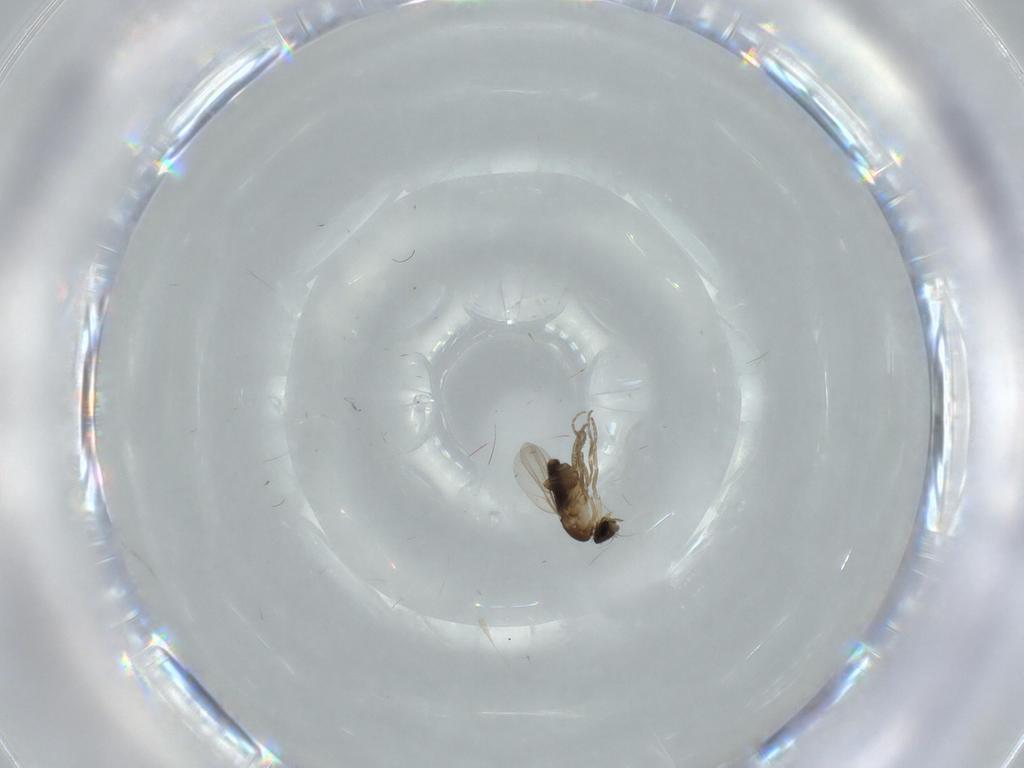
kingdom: Animalia
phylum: Arthropoda
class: Insecta
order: Diptera
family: Phoridae
